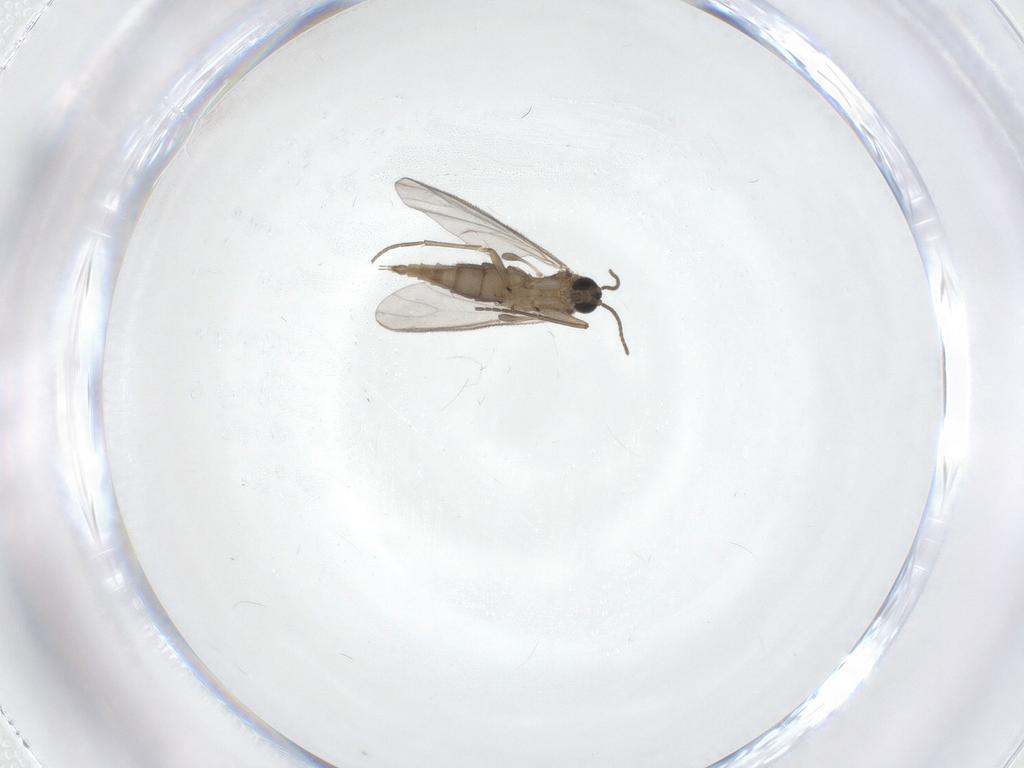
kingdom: Animalia
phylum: Arthropoda
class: Insecta
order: Diptera
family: Sciaridae
